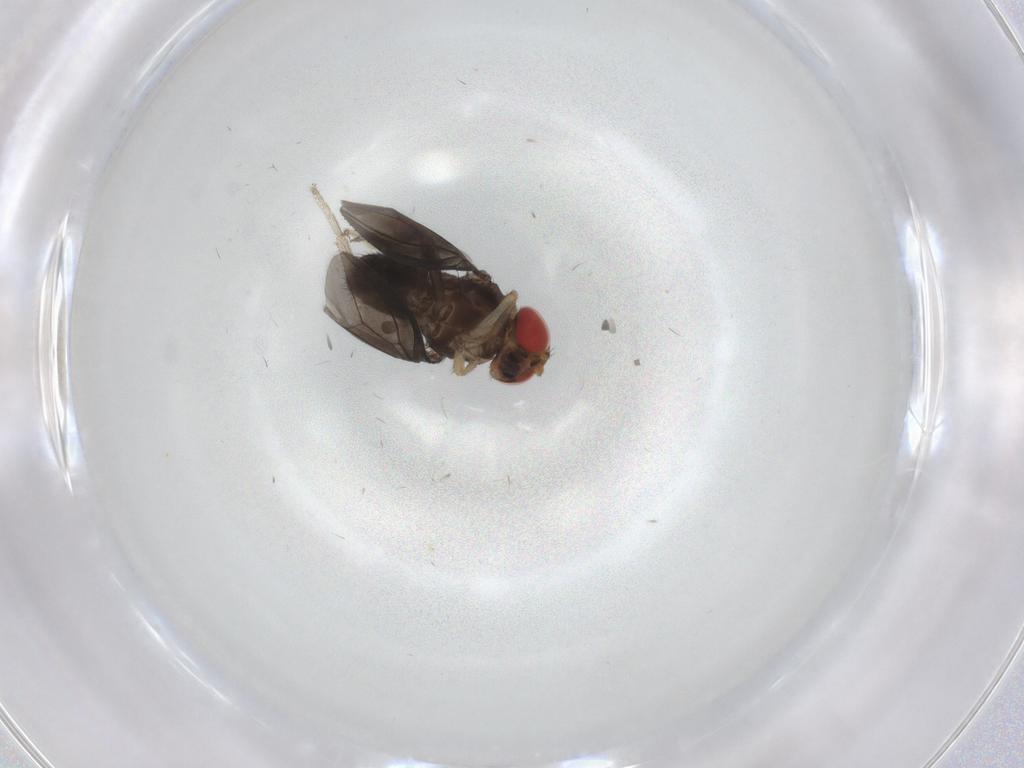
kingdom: Animalia
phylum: Arthropoda
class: Insecta
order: Diptera
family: Drosophilidae
